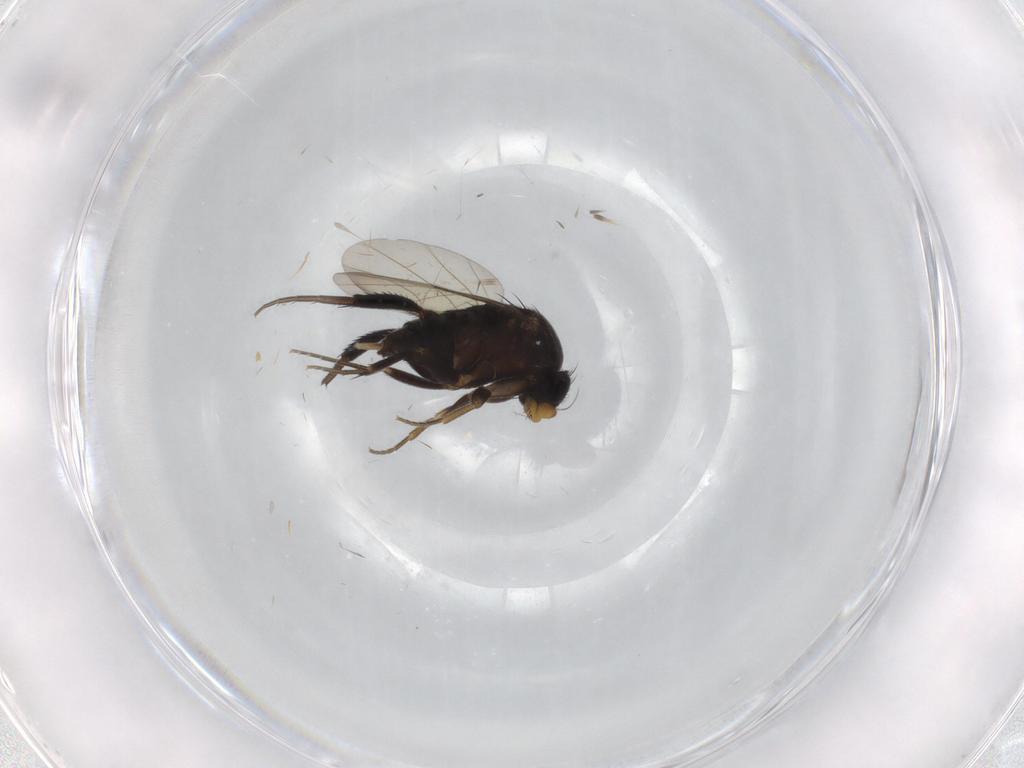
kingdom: Animalia
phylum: Arthropoda
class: Insecta
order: Diptera
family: Phoridae
